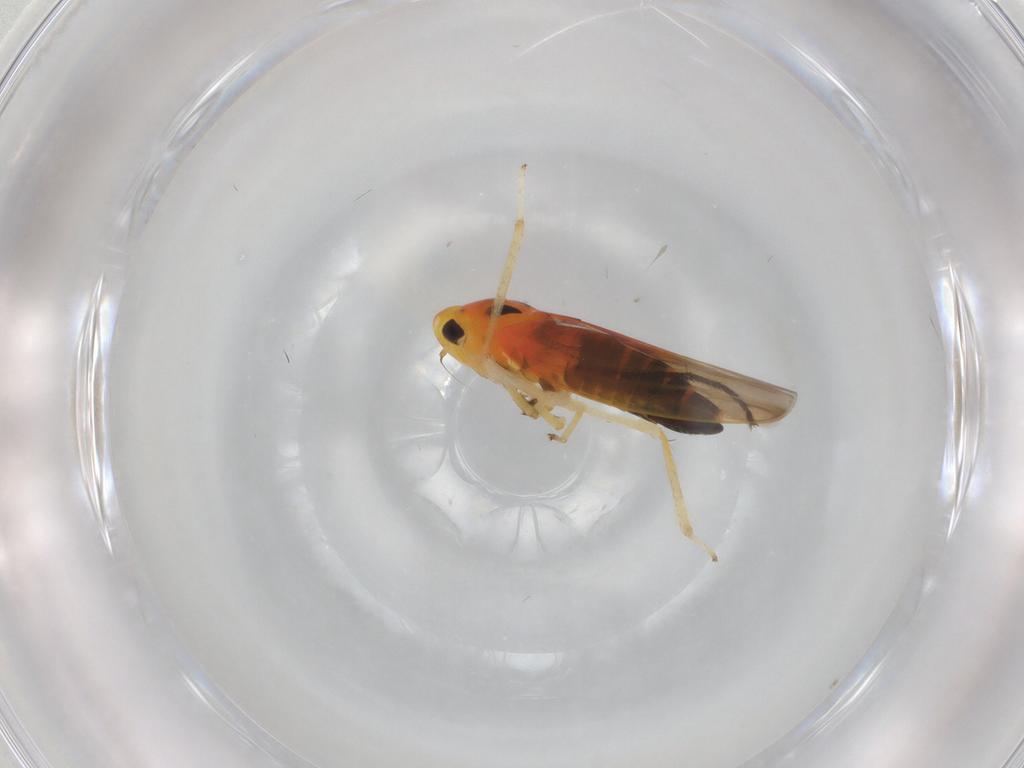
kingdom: Animalia
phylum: Arthropoda
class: Insecta
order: Hemiptera
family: Cicadellidae
